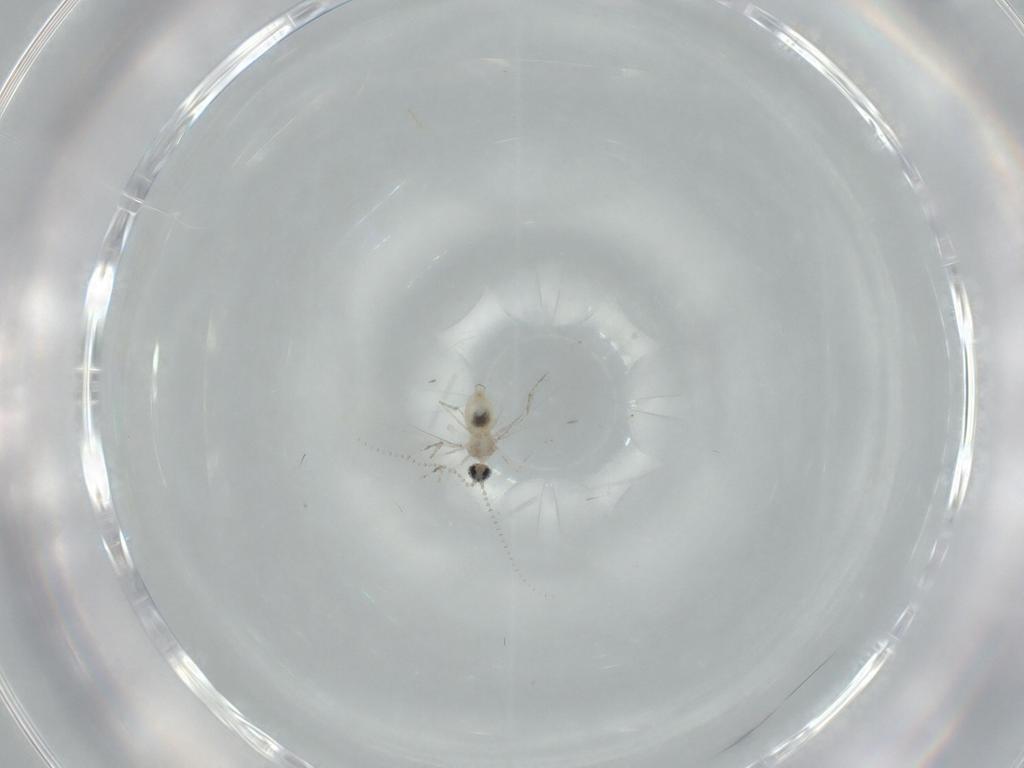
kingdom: Animalia
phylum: Arthropoda
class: Insecta
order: Diptera
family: Cecidomyiidae
